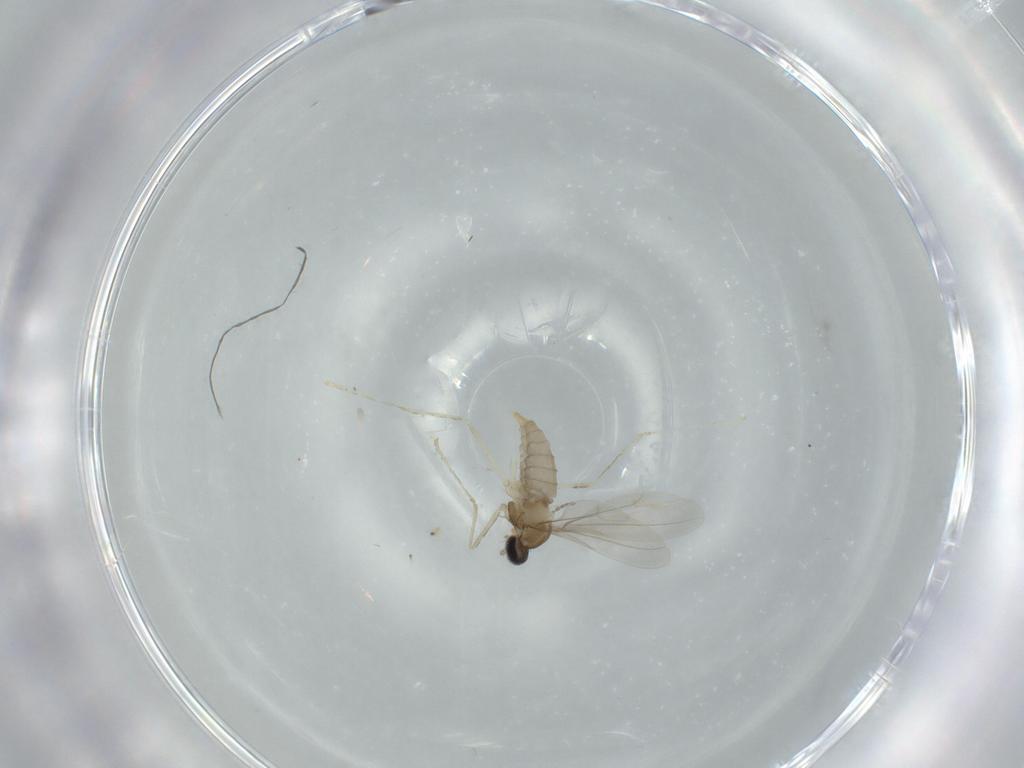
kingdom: Animalia
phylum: Arthropoda
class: Insecta
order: Diptera
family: Cecidomyiidae
